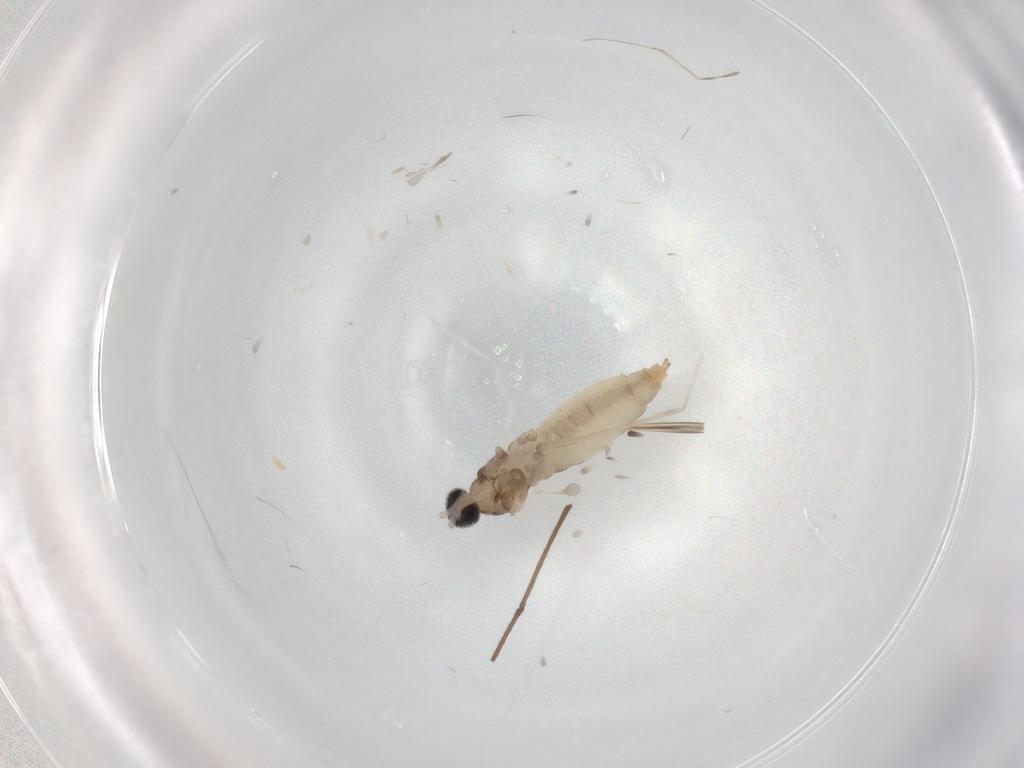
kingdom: Animalia
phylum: Arthropoda
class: Insecta
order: Diptera
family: Cecidomyiidae
